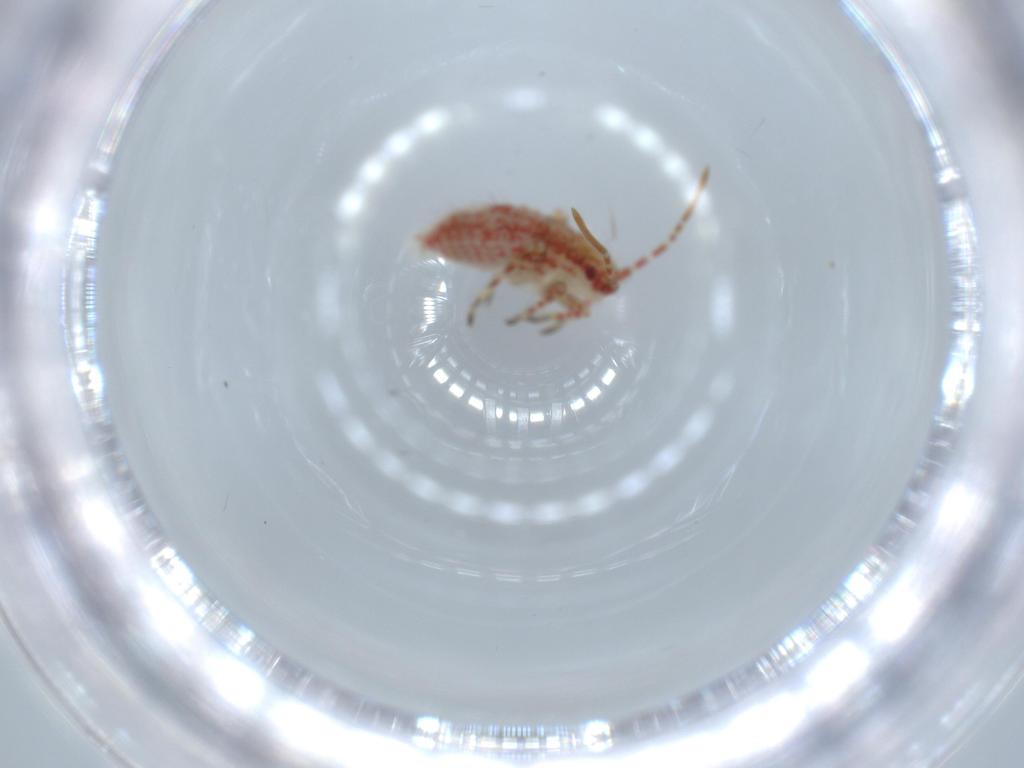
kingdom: Animalia
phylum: Arthropoda
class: Insecta
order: Hemiptera
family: Miridae
